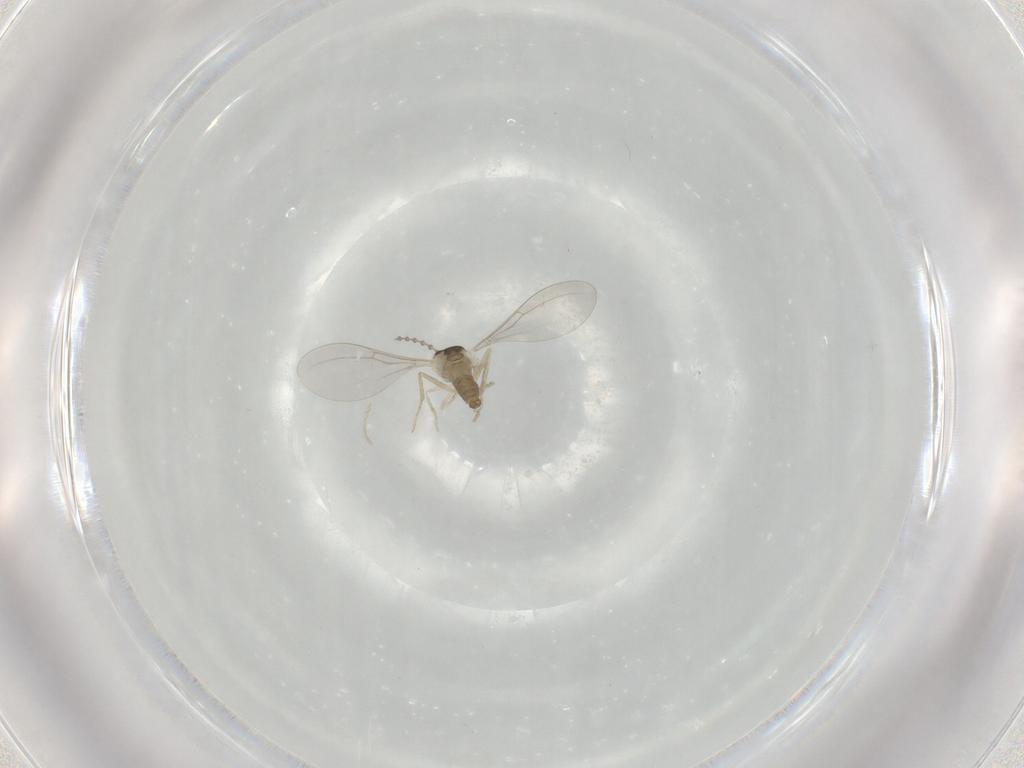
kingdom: Animalia
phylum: Arthropoda
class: Insecta
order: Diptera
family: Cecidomyiidae
